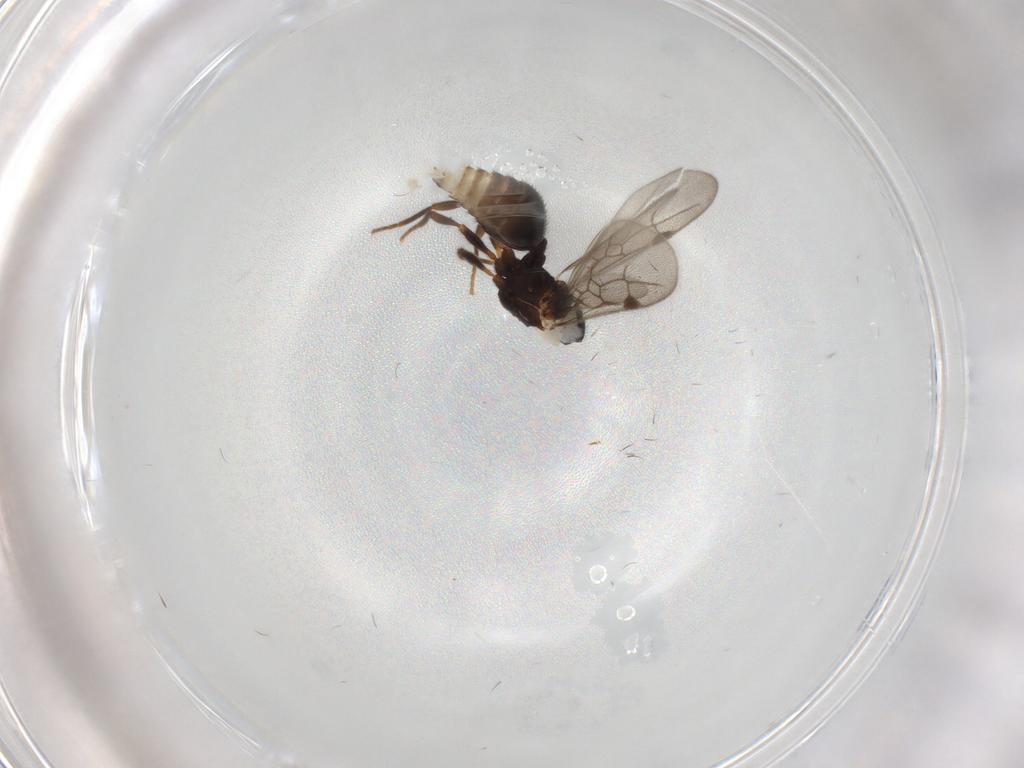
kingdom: Animalia
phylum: Arthropoda
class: Insecta
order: Hymenoptera
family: Formicidae
